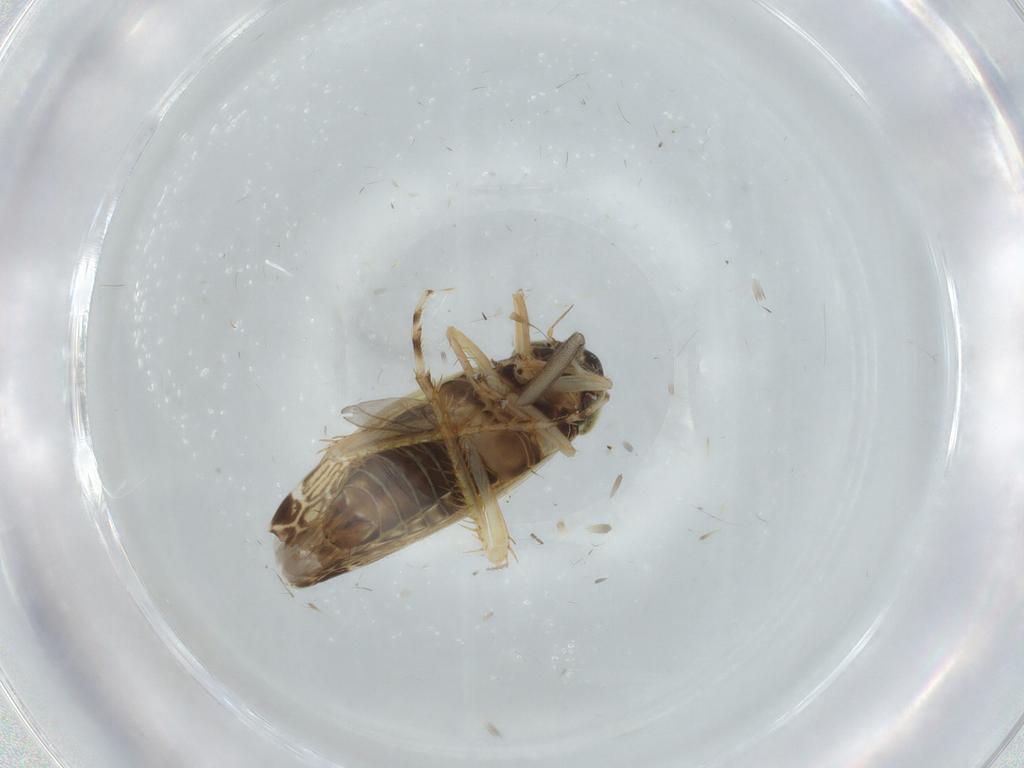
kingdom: Animalia
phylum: Arthropoda
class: Insecta
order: Hemiptera
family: Cicadellidae
